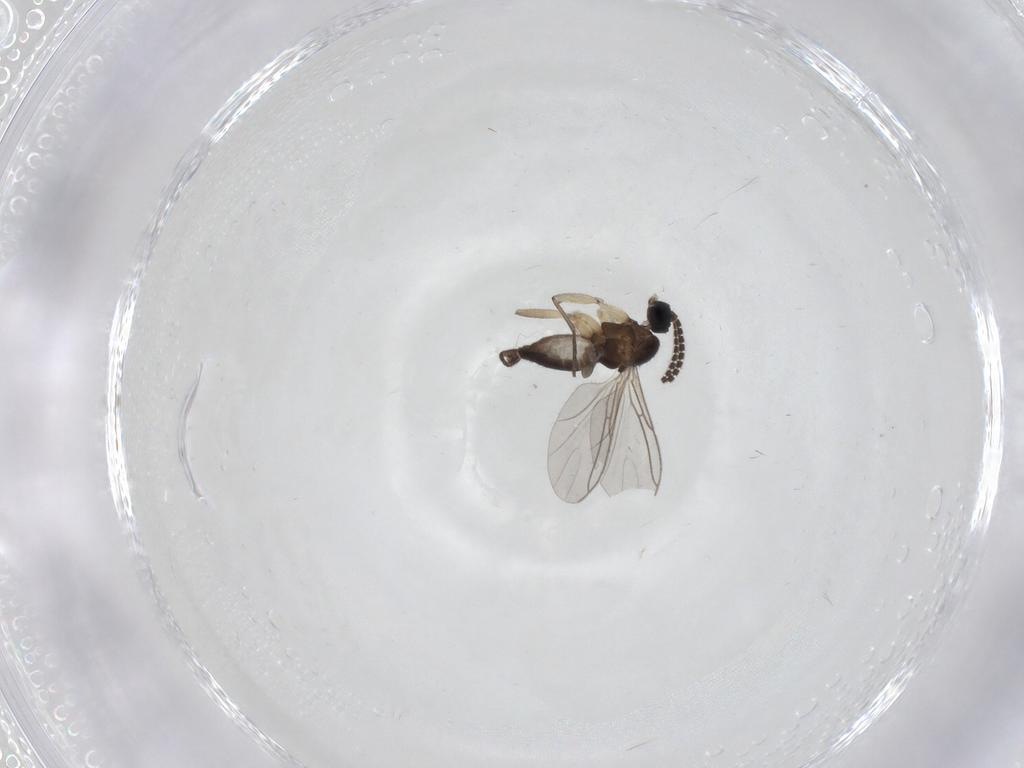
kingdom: Animalia
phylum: Arthropoda
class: Insecta
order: Diptera
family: Sciaridae
